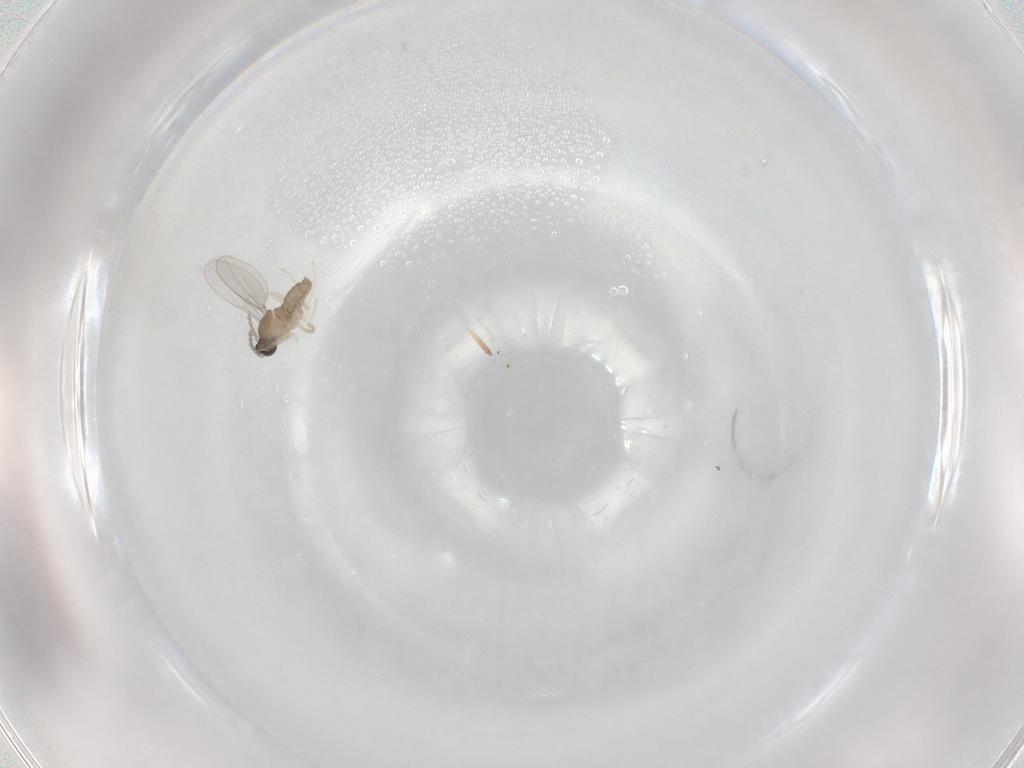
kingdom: Animalia
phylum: Arthropoda
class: Insecta
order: Diptera
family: Cecidomyiidae
